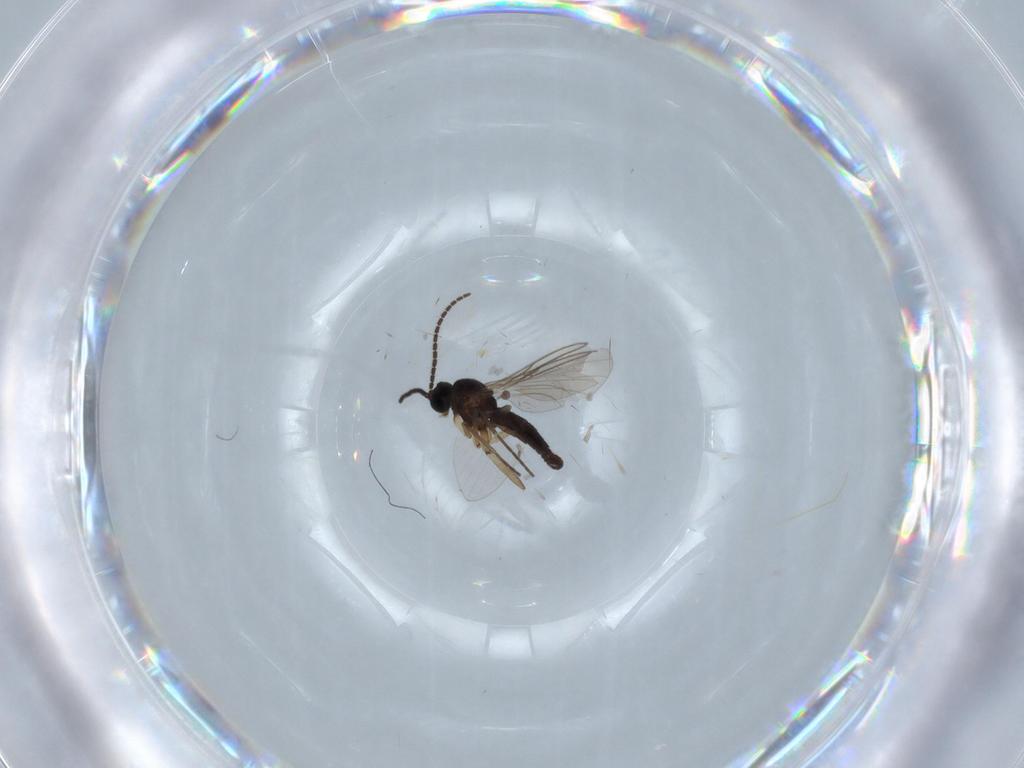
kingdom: Animalia
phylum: Arthropoda
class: Insecta
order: Diptera
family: Sciaridae
